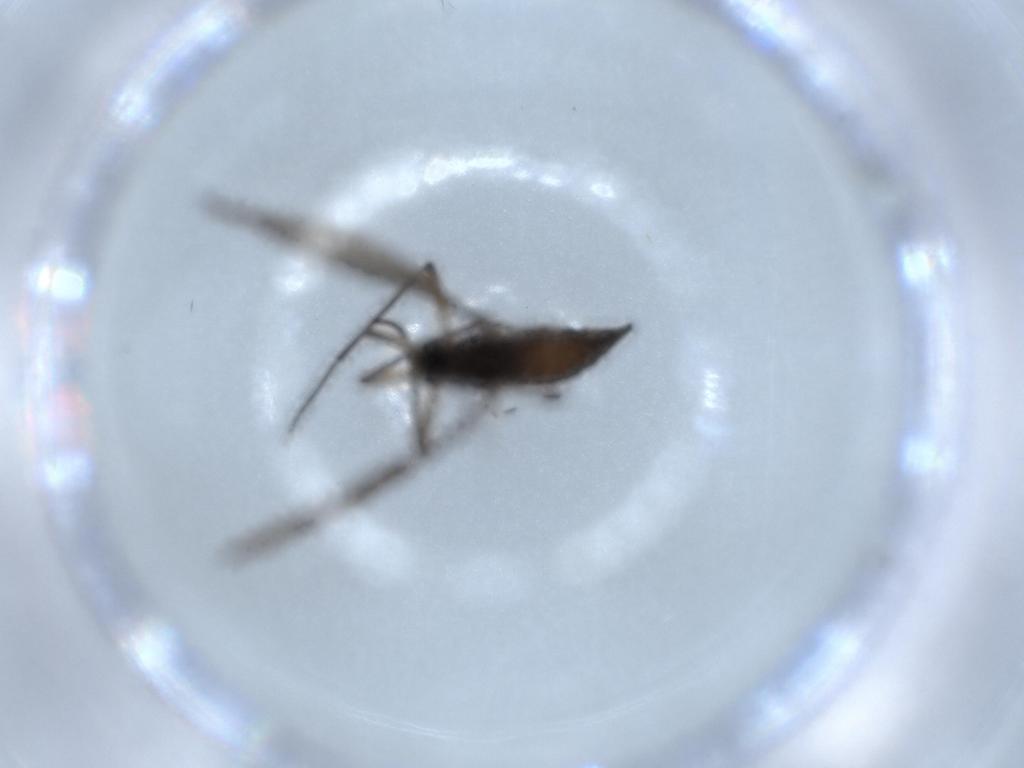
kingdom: Animalia
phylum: Arthropoda
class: Insecta
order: Diptera
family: Sciaridae
